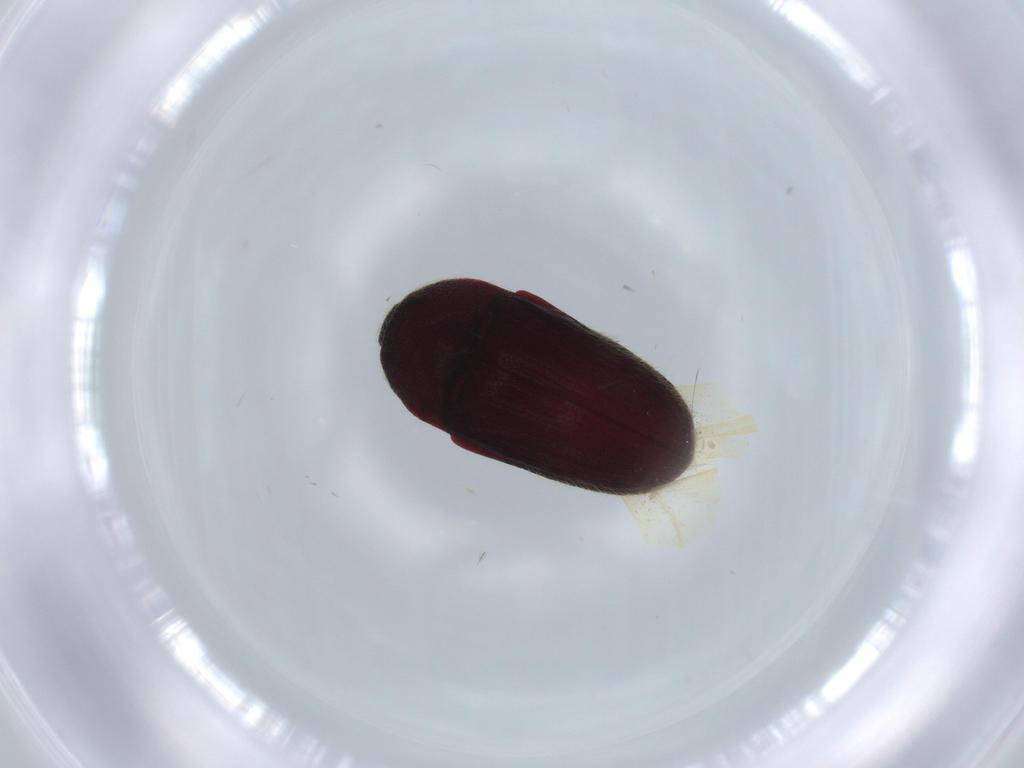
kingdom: Animalia
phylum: Arthropoda
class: Insecta
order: Coleoptera
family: Throscidae
